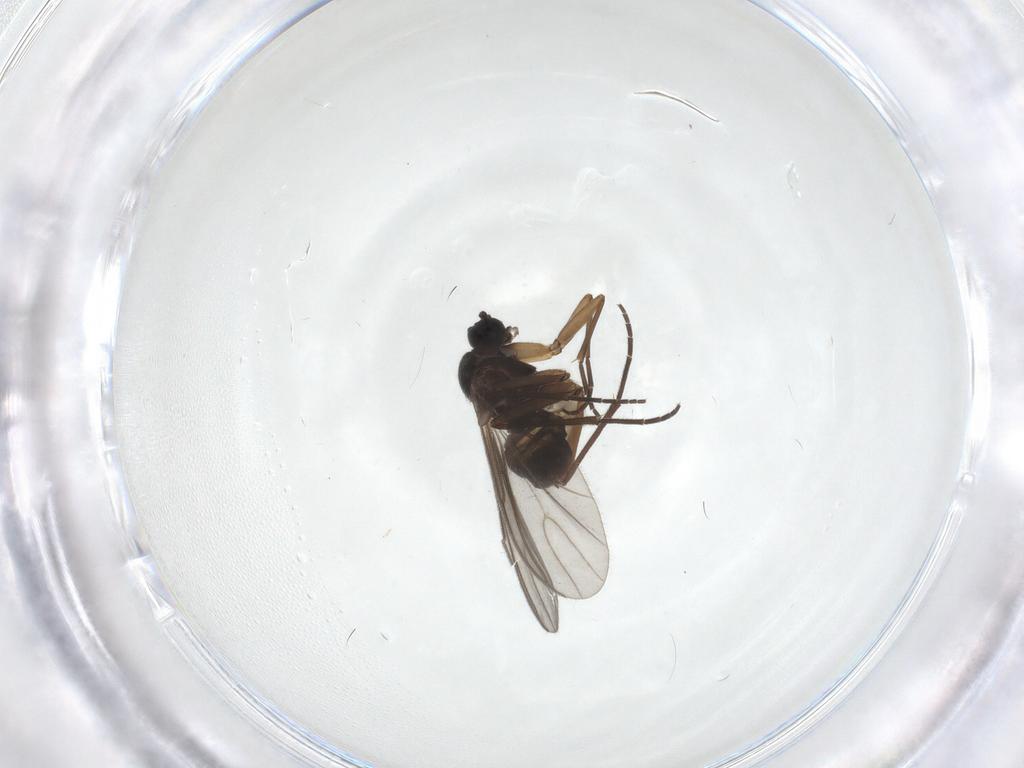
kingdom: Animalia
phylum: Arthropoda
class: Insecta
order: Diptera
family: Sciaridae
